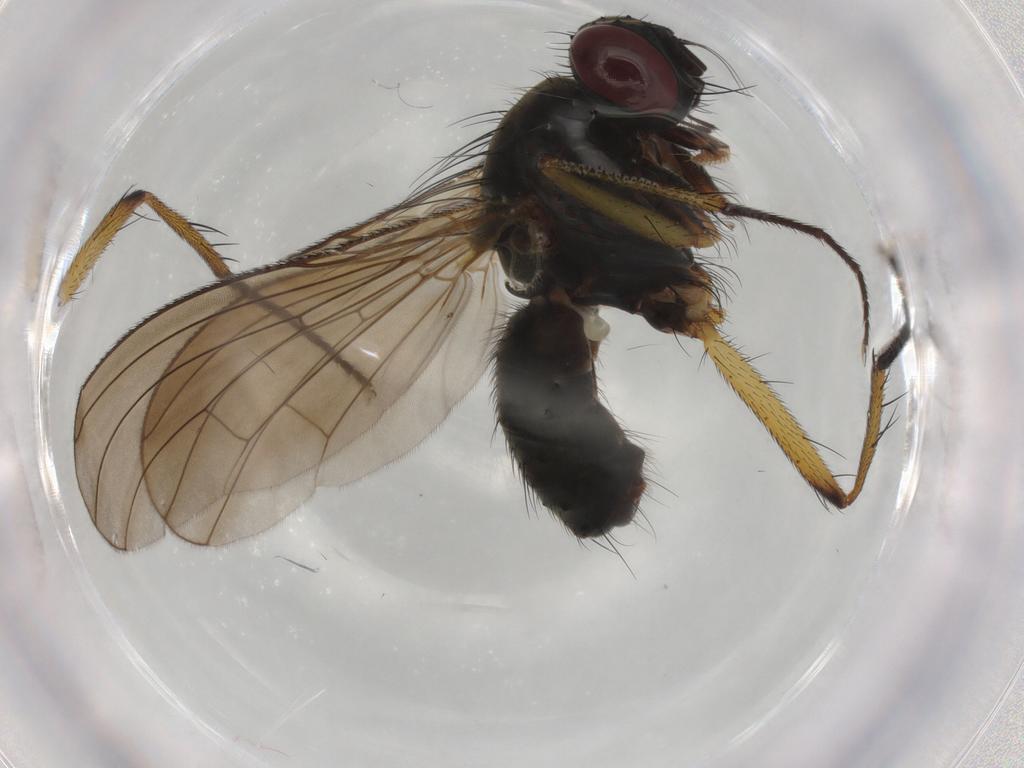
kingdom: Animalia
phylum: Arthropoda
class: Insecta
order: Diptera
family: Muscidae
